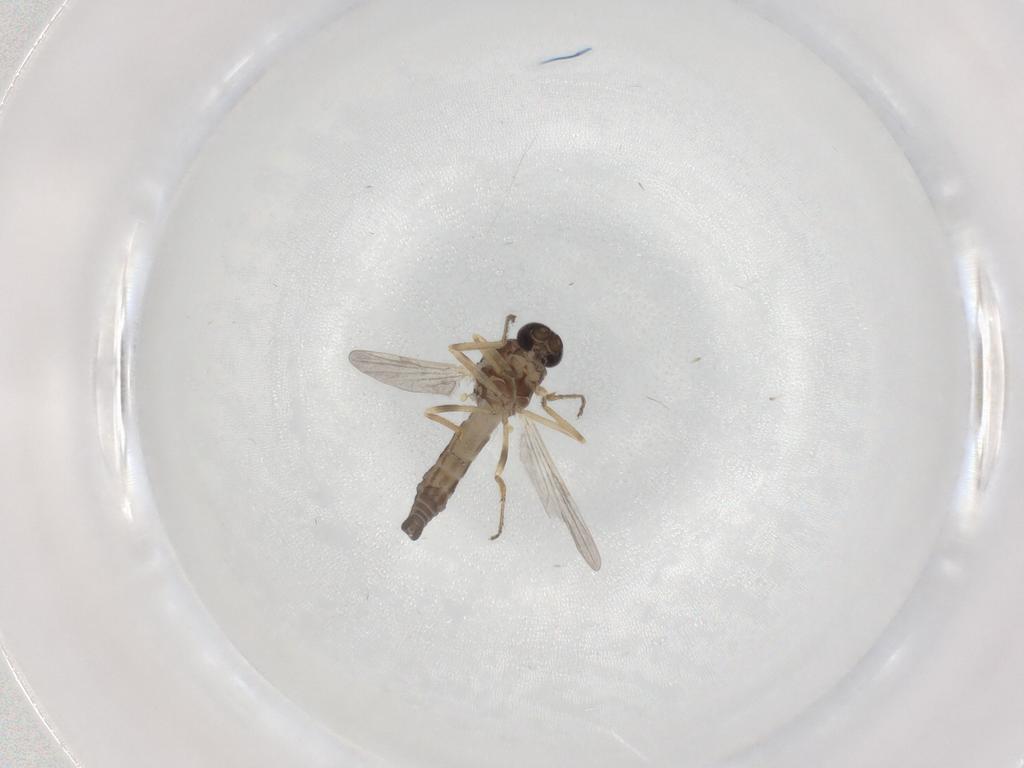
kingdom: Animalia
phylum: Arthropoda
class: Insecta
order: Diptera
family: Ceratopogonidae
